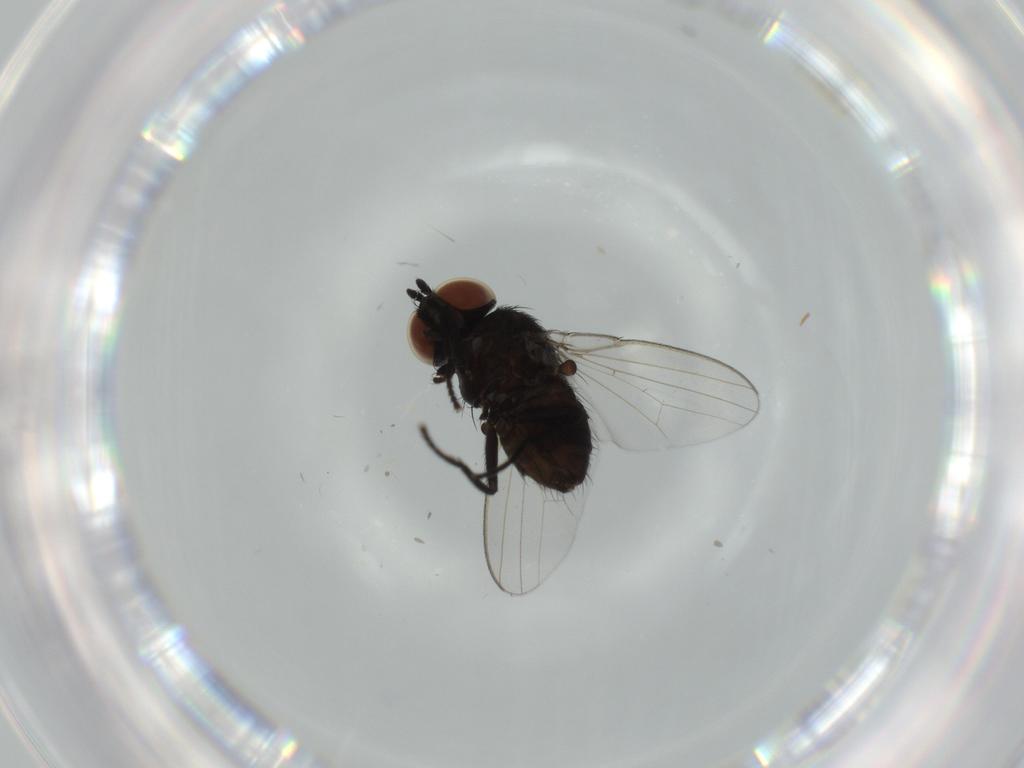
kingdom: Animalia
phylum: Arthropoda
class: Insecta
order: Diptera
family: Milichiidae
